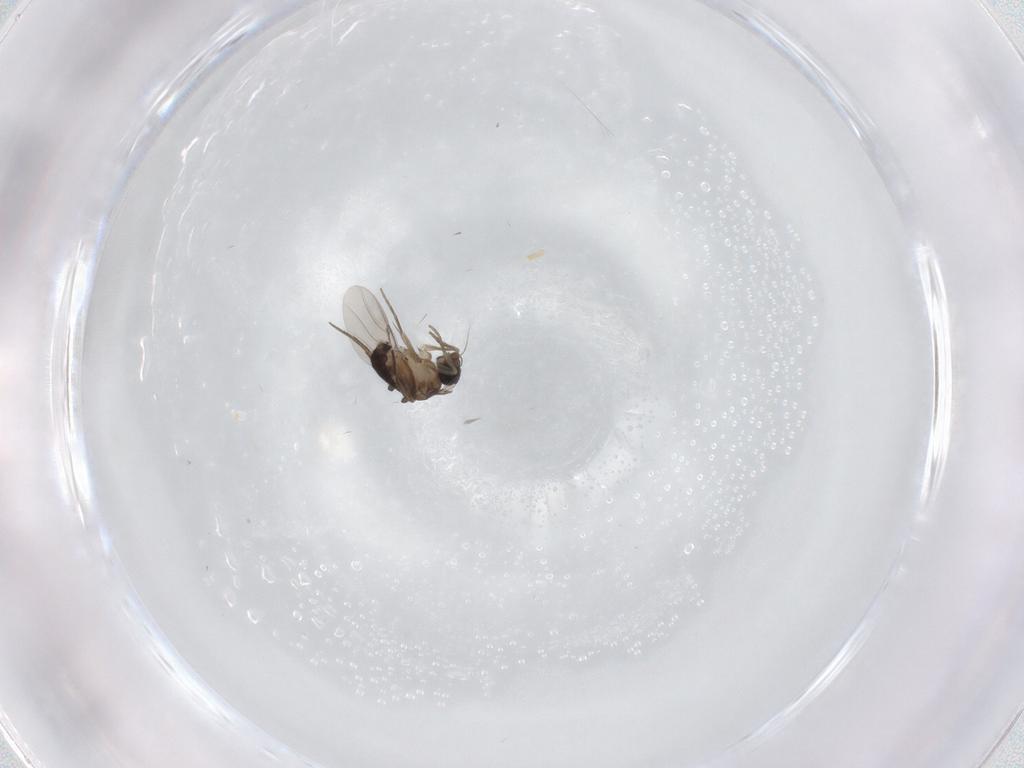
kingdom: Animalia
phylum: Arthropoda
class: Insecta
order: Diptera
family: Phoridae
